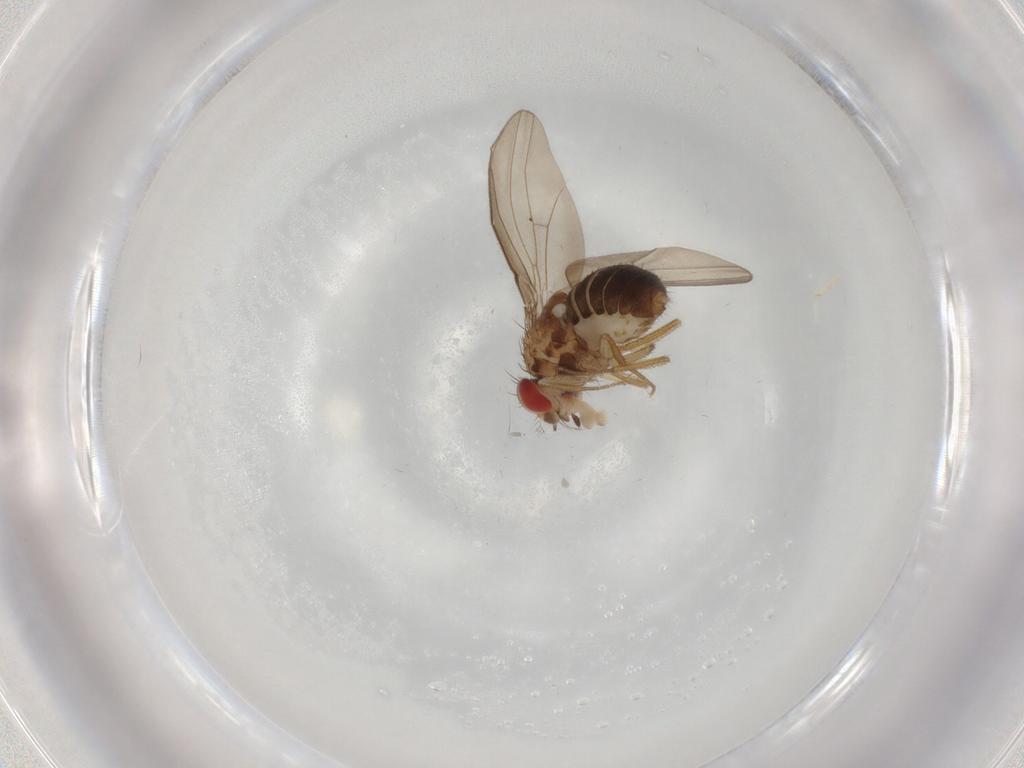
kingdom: Animalia
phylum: Arthropoda
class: Insecta
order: Diptera
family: Drosophilidae
